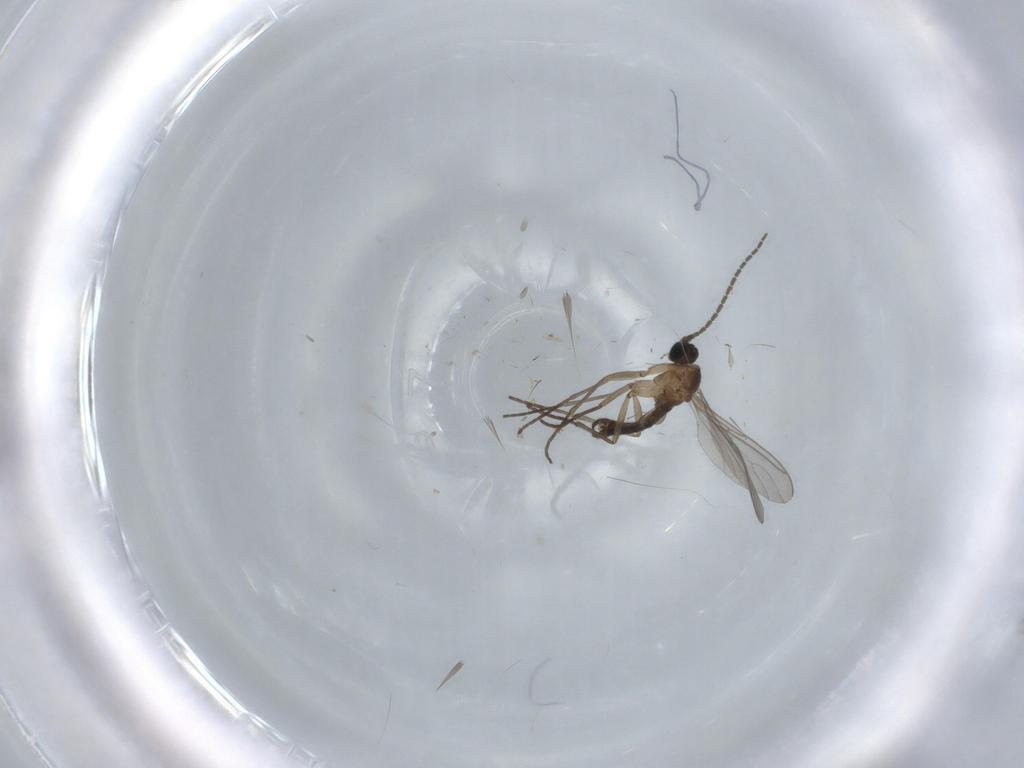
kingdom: Animalia
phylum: Arthropoda
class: Insecta
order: Diptera
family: Sciaridae
